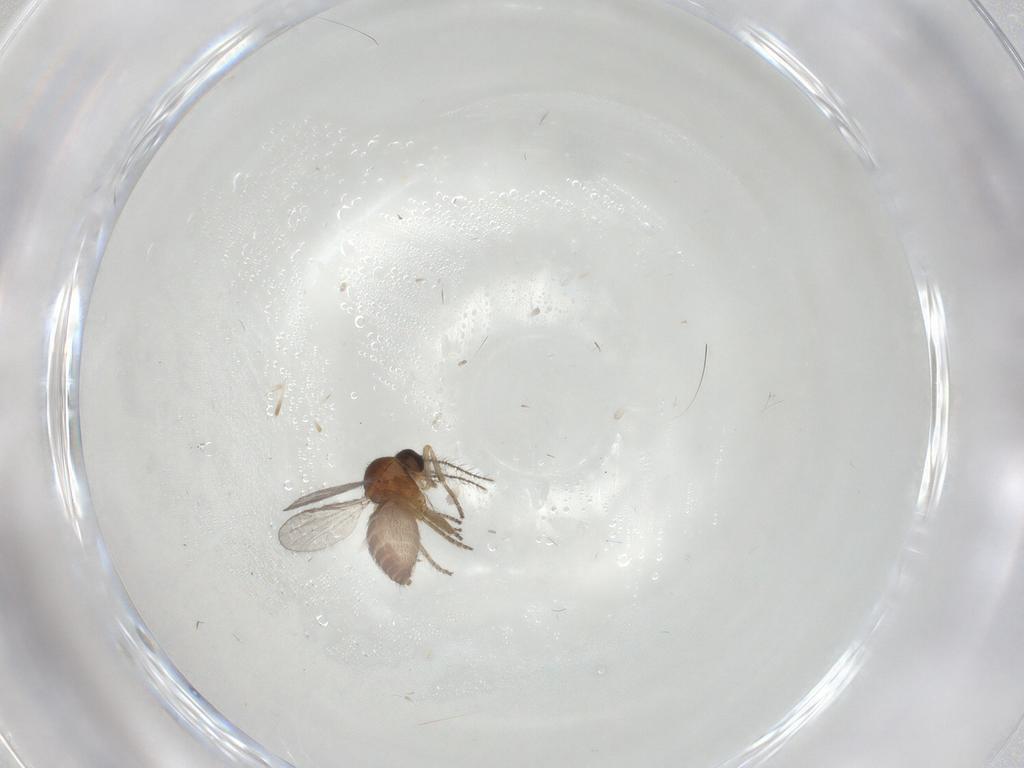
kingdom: Animalia
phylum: Arthropoda
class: Insecta
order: Diptera
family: Ceratopogonidae
